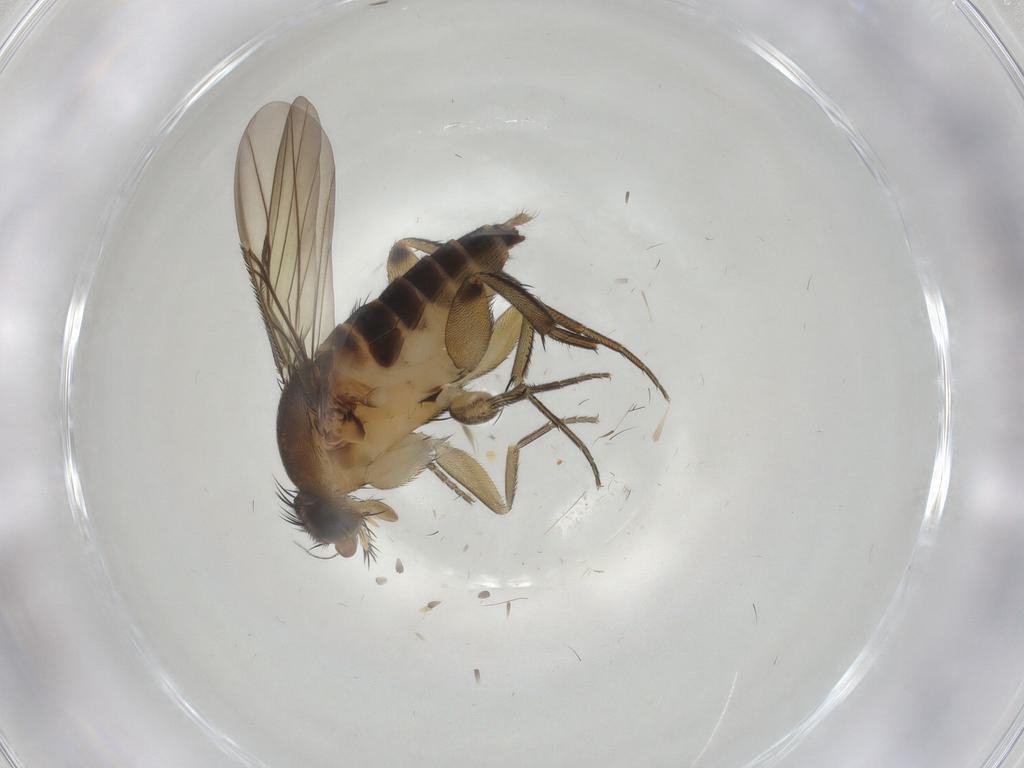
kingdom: Animalia
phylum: Arthropoda
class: Insecta
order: Diptera
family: Phoridae
